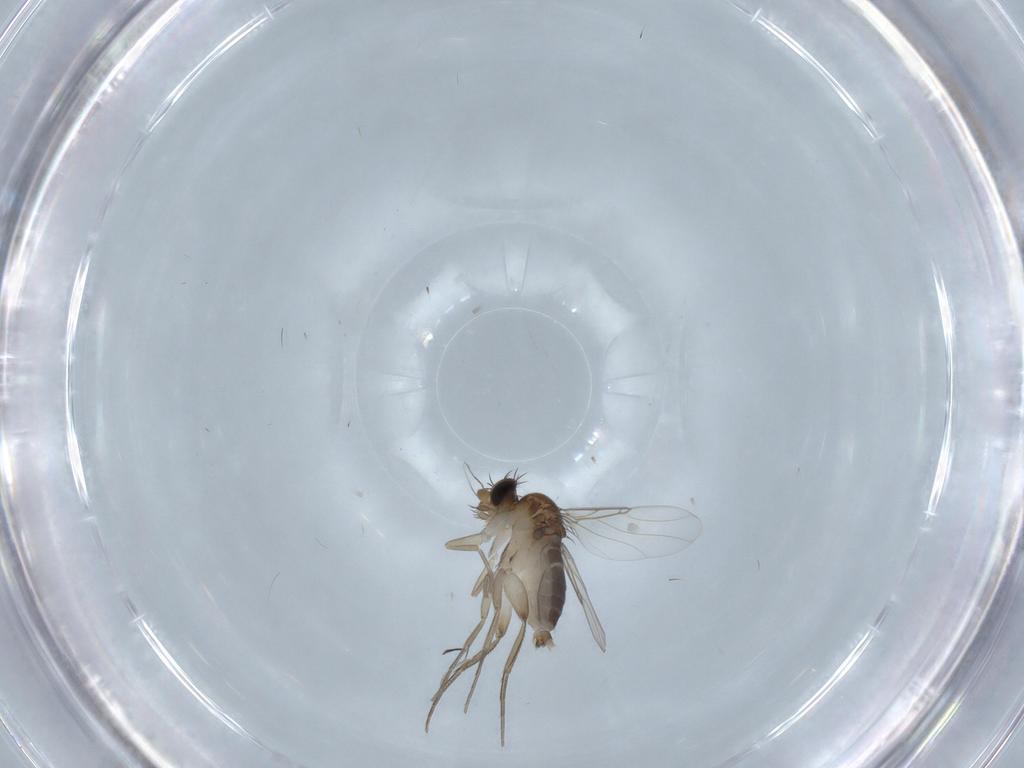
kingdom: Animalia
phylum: Arthropoda
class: Insecta
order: Diptera
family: Phoridae
